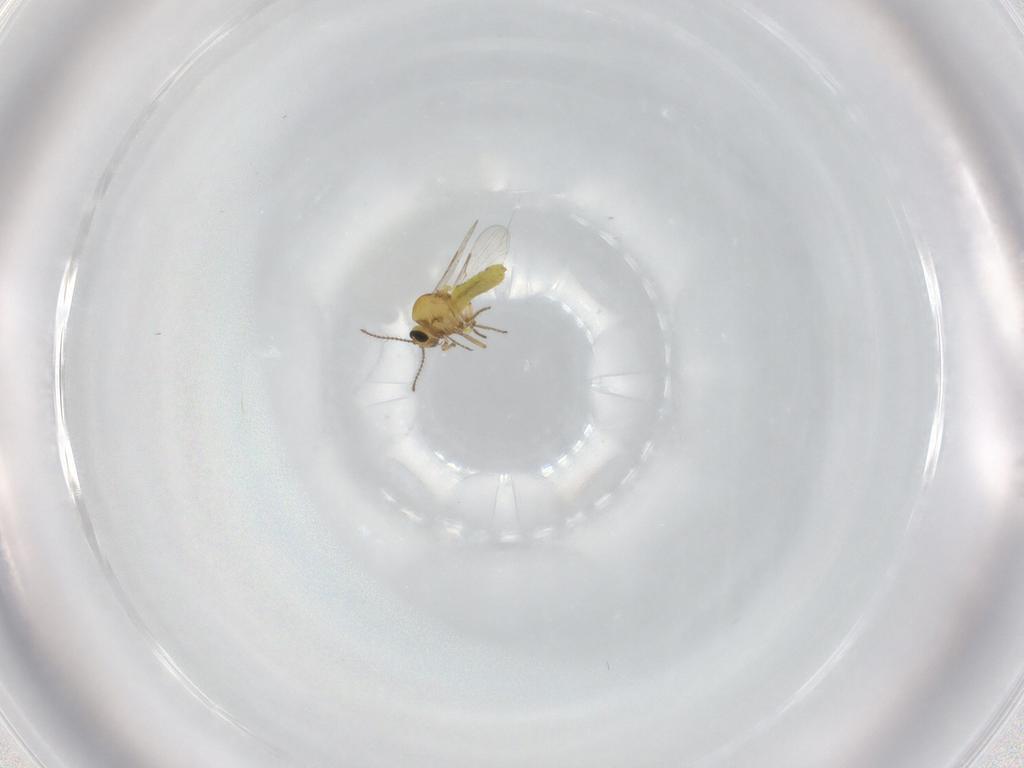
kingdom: Animalia
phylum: Arthropoda
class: Insecta
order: Diptera
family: Ceratopogonidae
